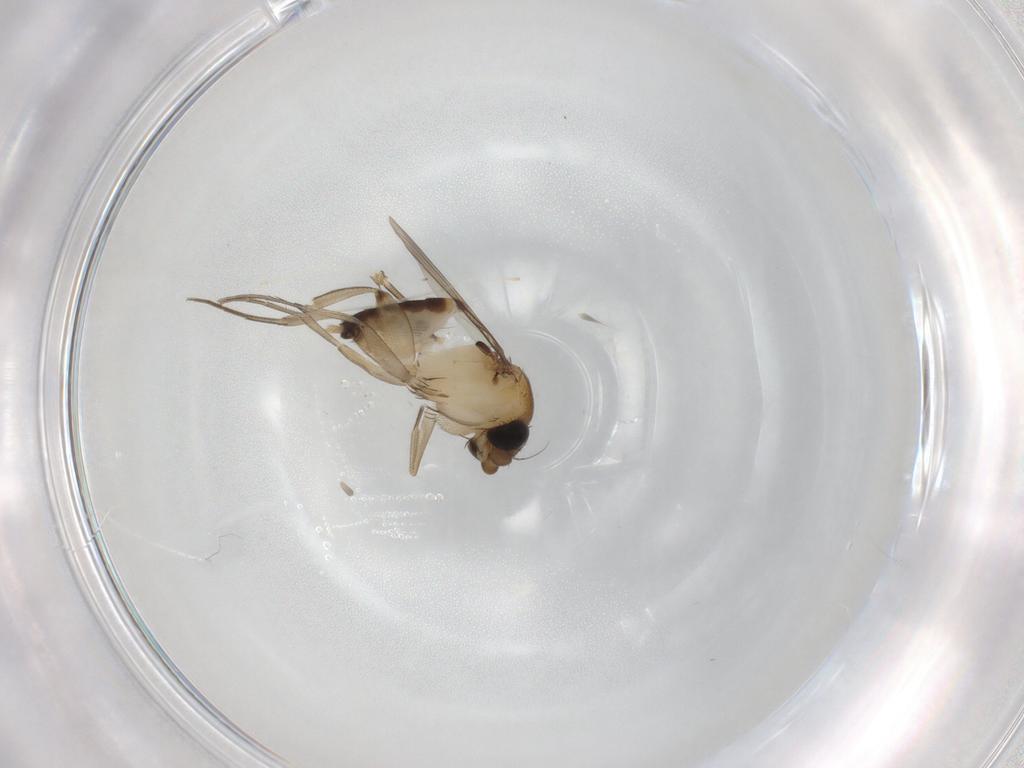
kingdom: Animalia
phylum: Arthropoda
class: Insecta
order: Diptera
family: Phoridae
